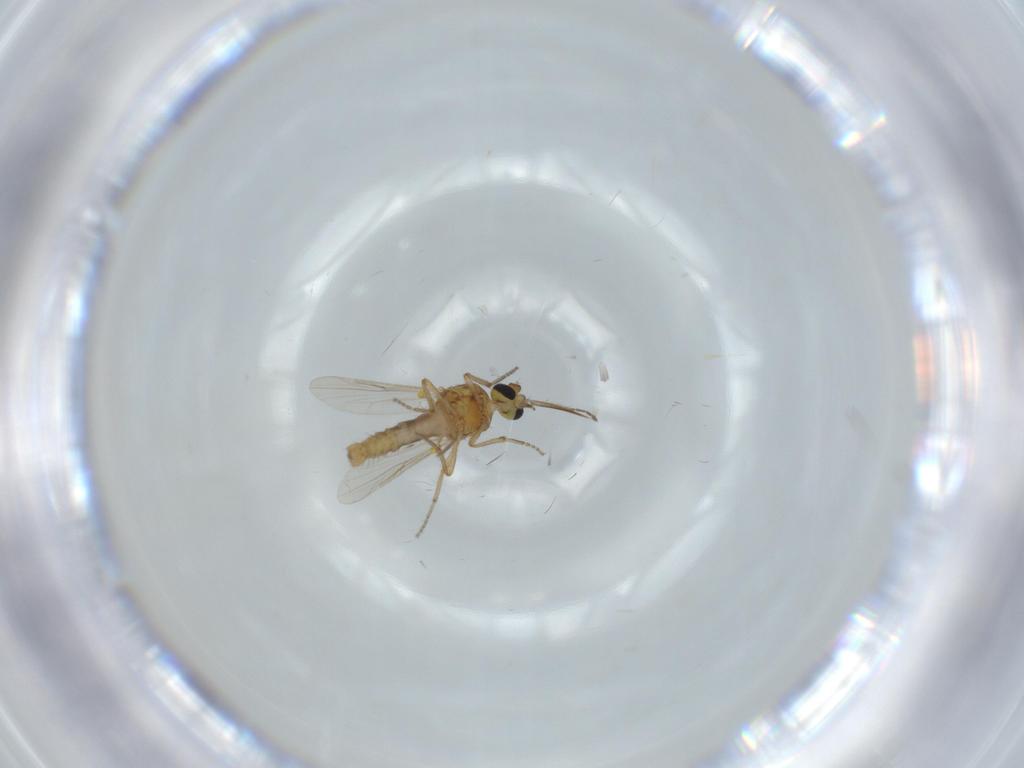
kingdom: Animalia
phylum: Arthropoda
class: Insecta
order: Diptera
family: Ceratopogonidae
